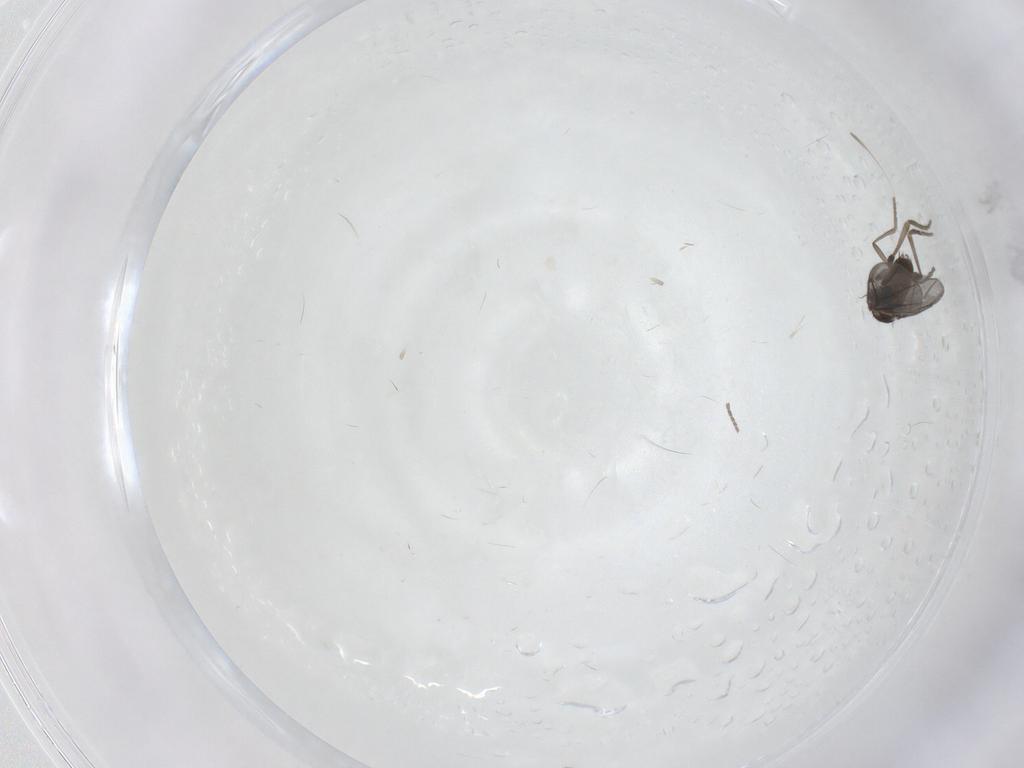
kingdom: Animalia
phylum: Arthropoda
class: Insecta
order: Diptera
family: Phoridae
